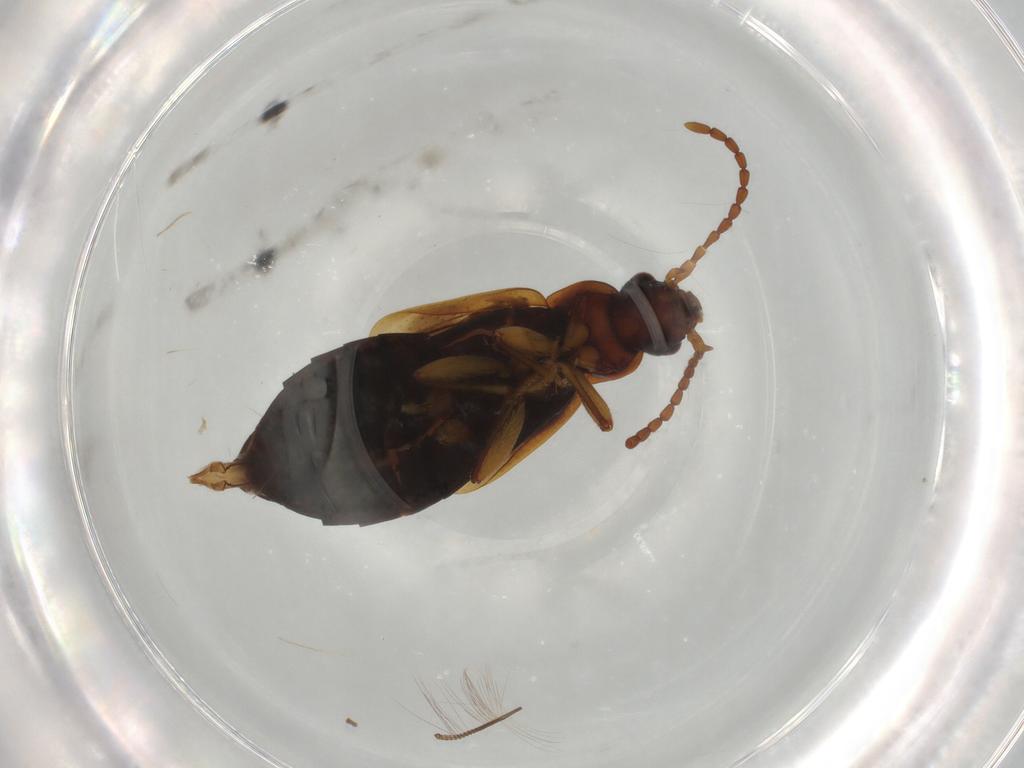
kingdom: Animalia
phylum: Arthropoda
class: Insecta
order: Coleoptera
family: Staphylinidae
